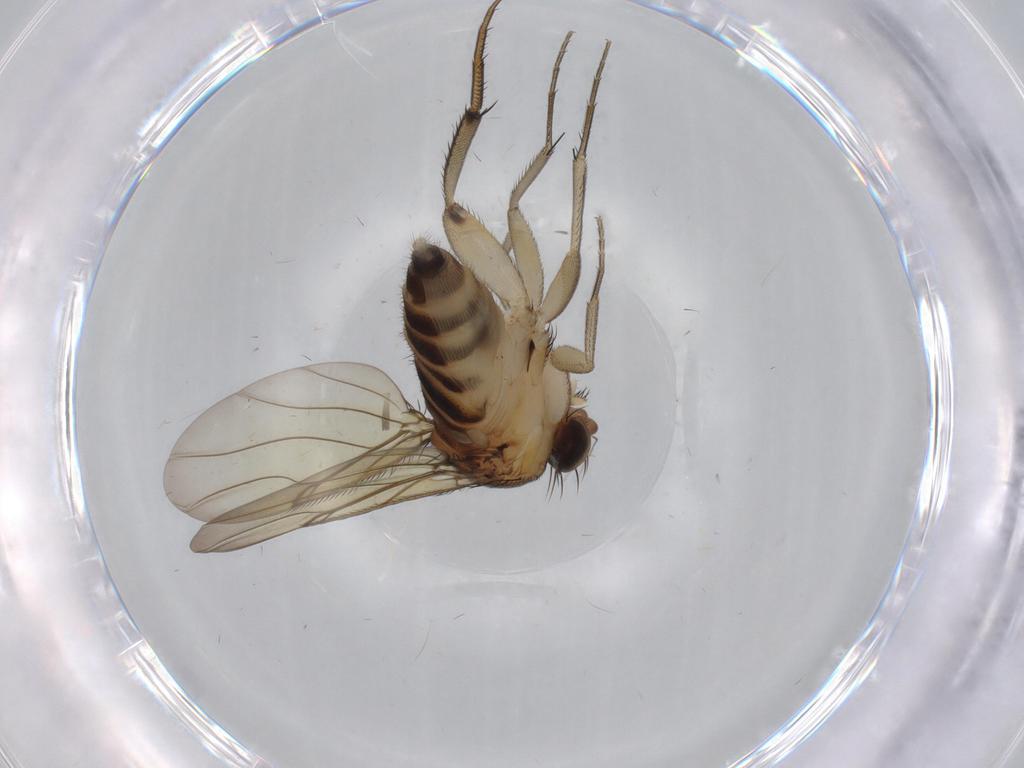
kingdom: Animalia
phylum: Arthropoda
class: Insecta
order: Diptera
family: Phoridae
